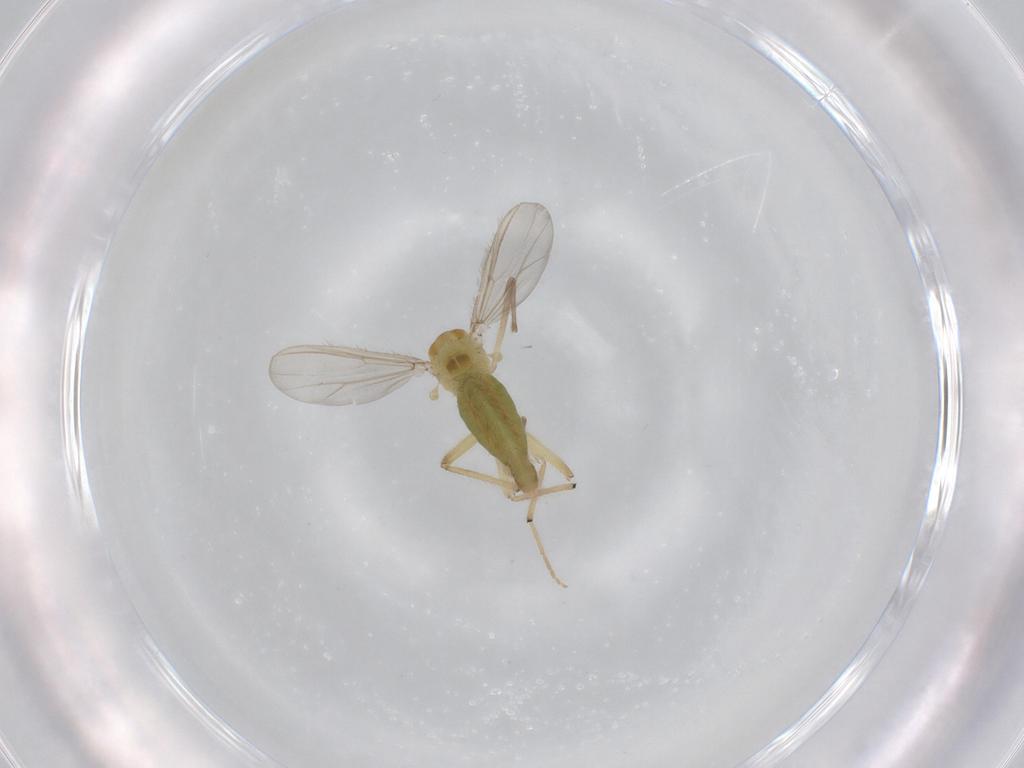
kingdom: Animalia
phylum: Arthropoda
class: Insecta
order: Diptera
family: Chironomidae
